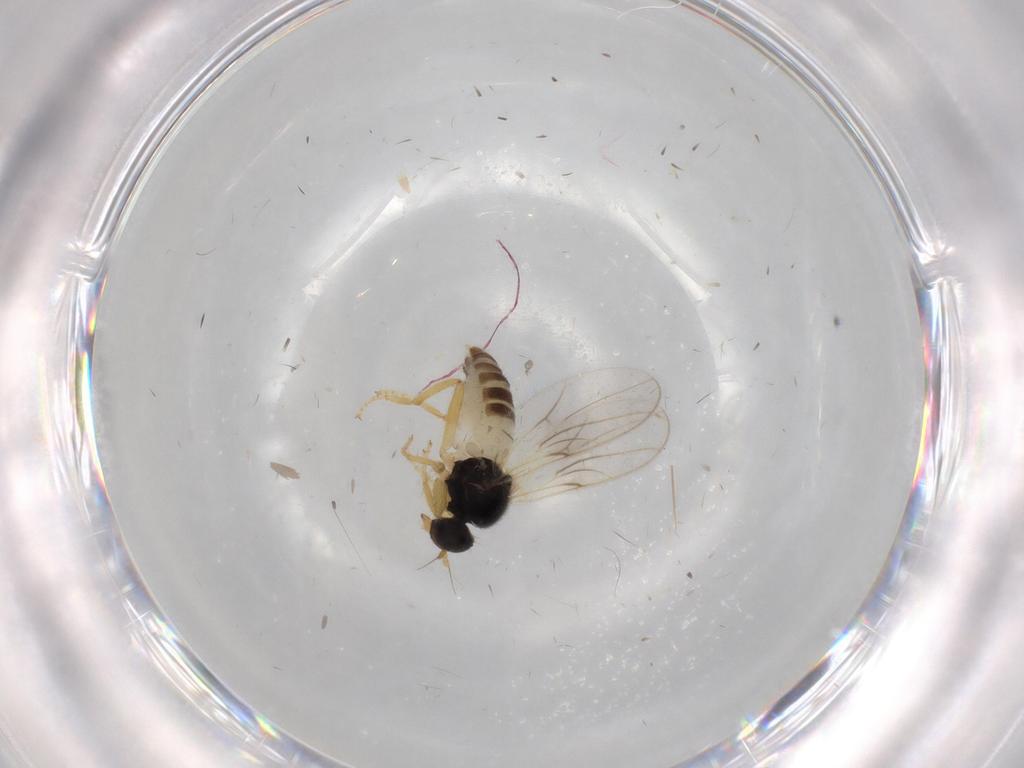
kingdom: Animalia
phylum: Arthropoda
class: Insecta
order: Diptera
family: Hybotidae
